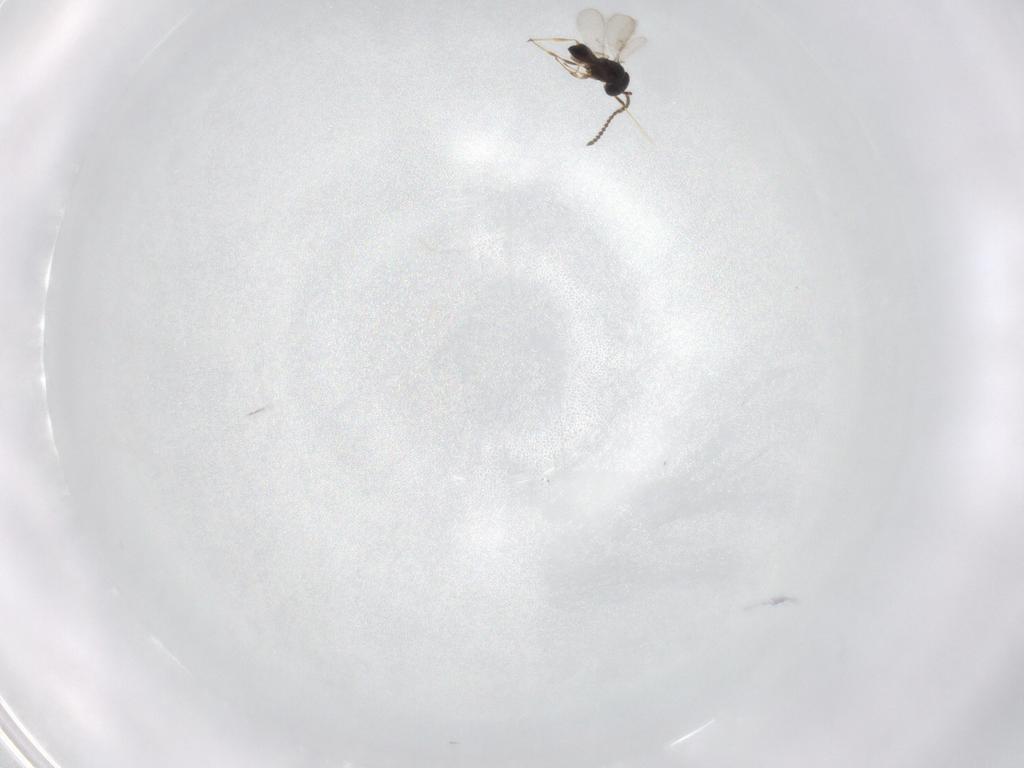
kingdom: Animalia
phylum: Arthropoda
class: Insecta
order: Hymenoptera
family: Scelionidae
